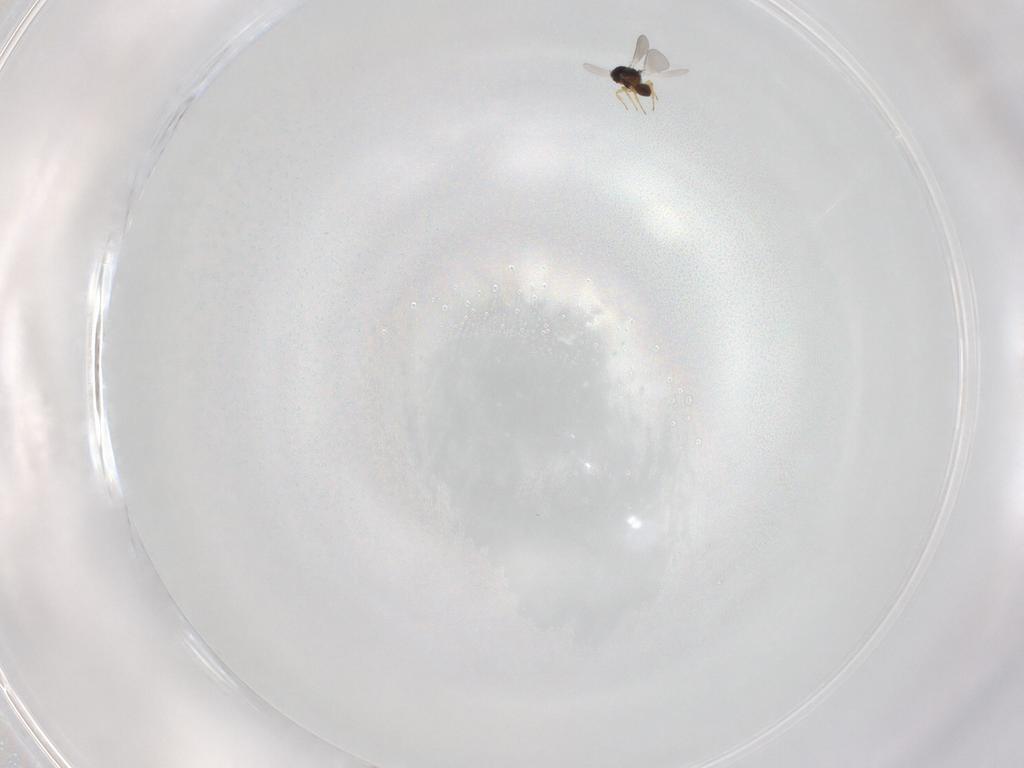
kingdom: Animalia
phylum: Arthropoda
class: Insecta
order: Hymenoptera
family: Platygastridae
